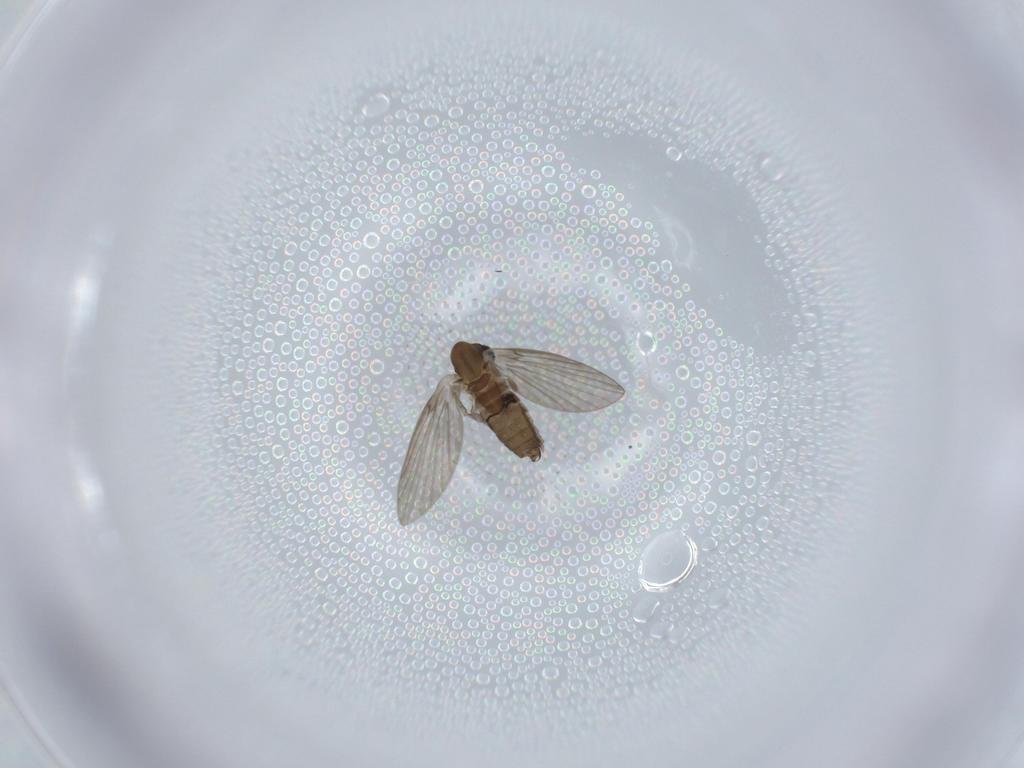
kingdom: Animalia
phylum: Arthropoda
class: Insecta
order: Diptera
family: Psychodidae
